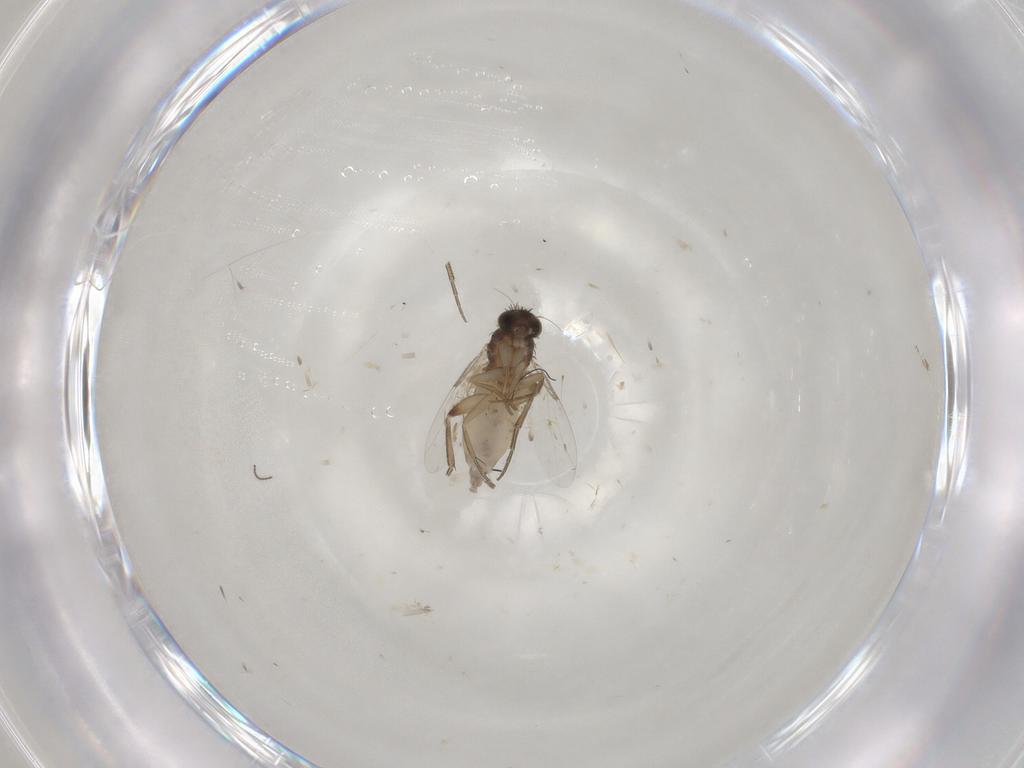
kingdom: Animalia
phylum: Arthropoda
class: Insecta
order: Diptera
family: Phoridae
